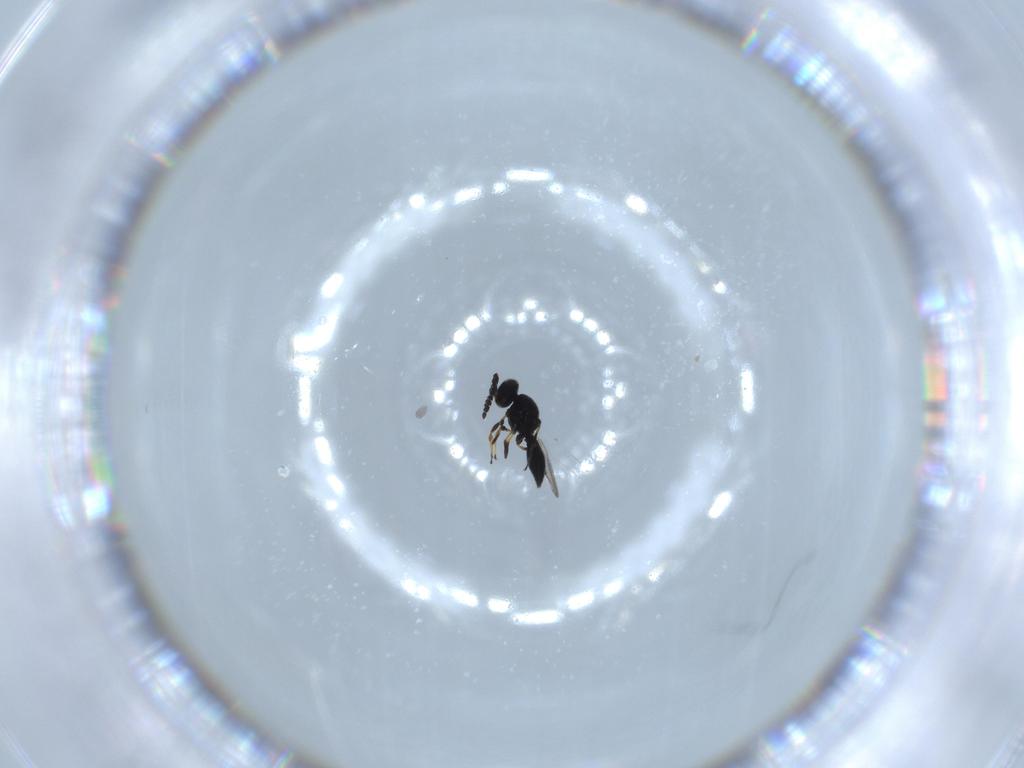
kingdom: Animalia
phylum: Arthropoda
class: Insecta
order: Hymenoptera
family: Platygastridae
